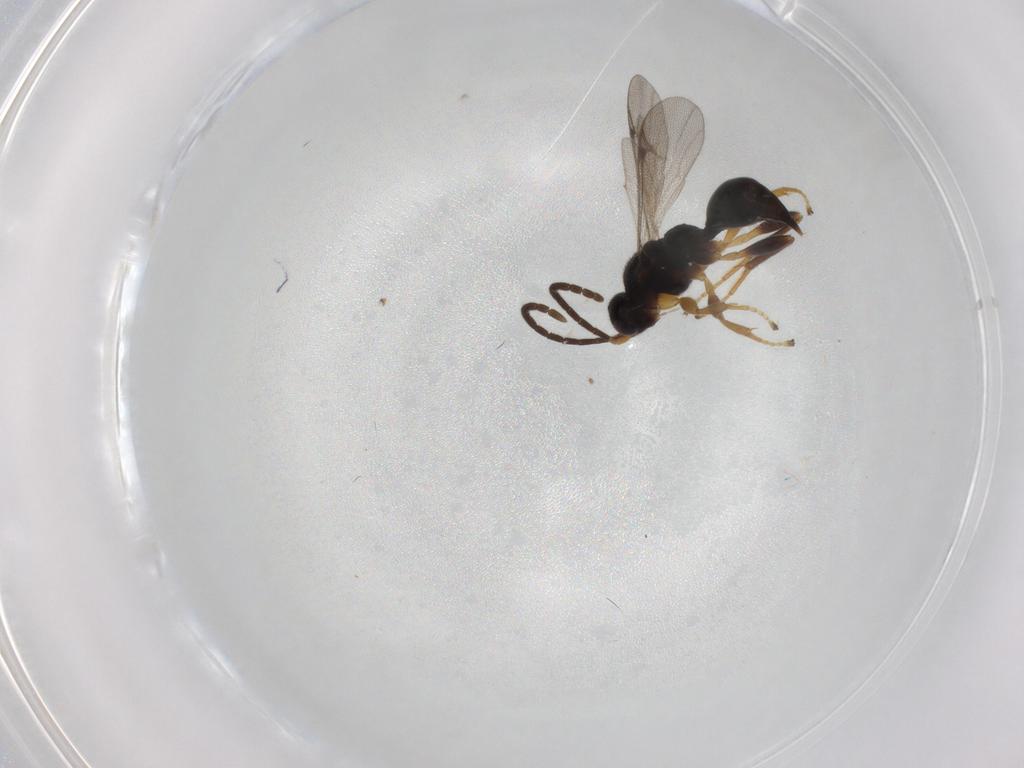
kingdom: Animalia
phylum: Arthropoda
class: Insecta
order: Hymenoptera
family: Proctotrupidae
